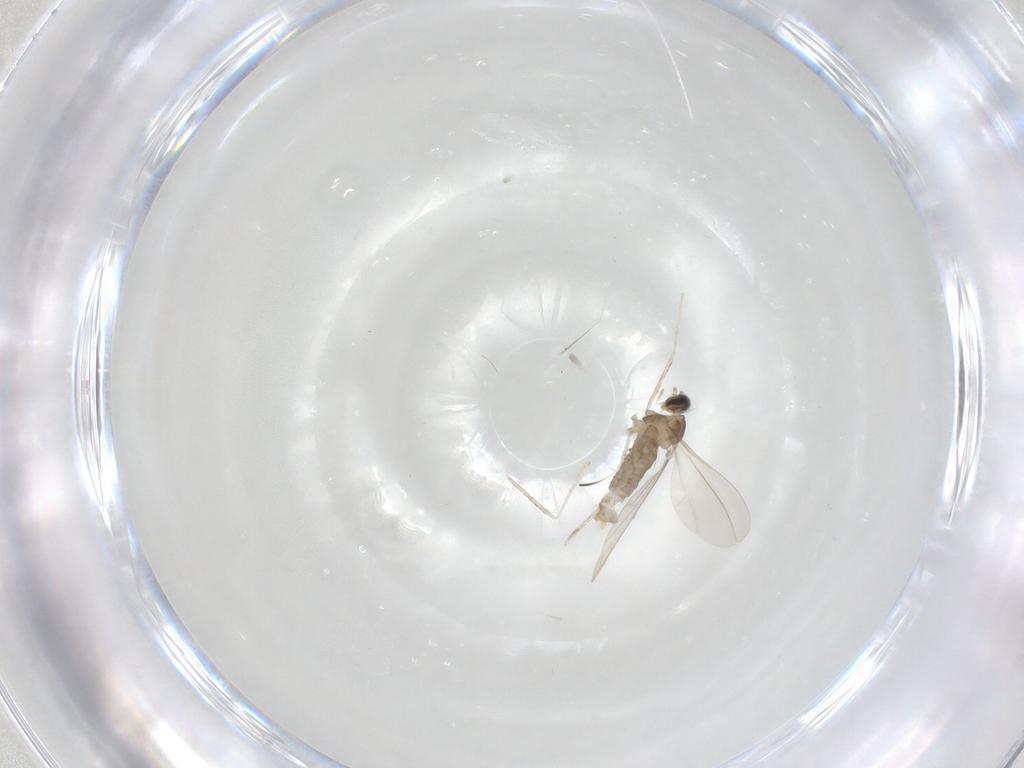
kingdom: Animalia
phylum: Arthropoda
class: Insecta
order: Diptera
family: Cecidomyiidae
